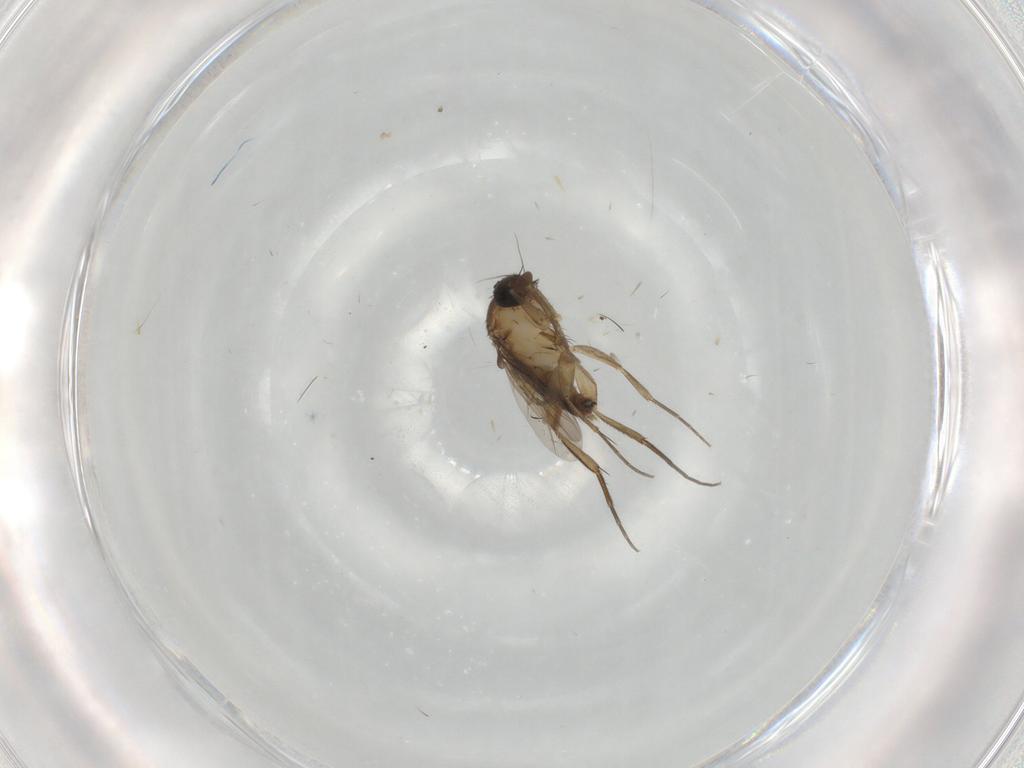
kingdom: Animalia
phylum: Arthropoda
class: Insecta
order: Diptera
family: Phoridae
